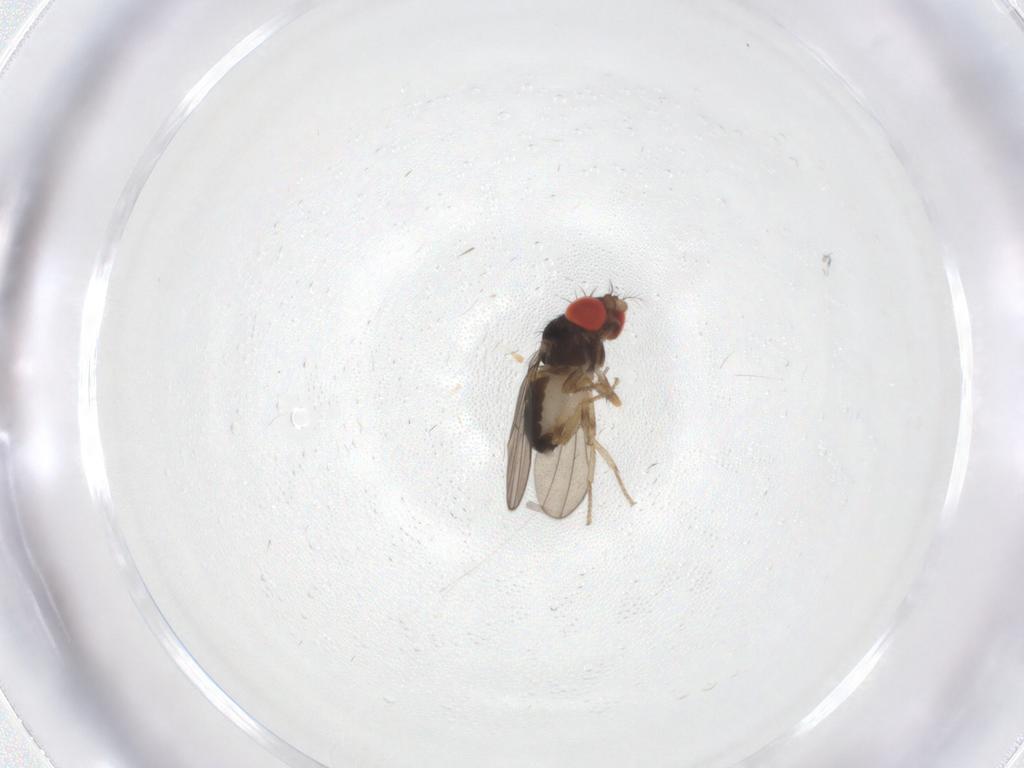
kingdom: Animalia
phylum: Arthropoda
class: Insecta
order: Diptera
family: Drosophilidae
